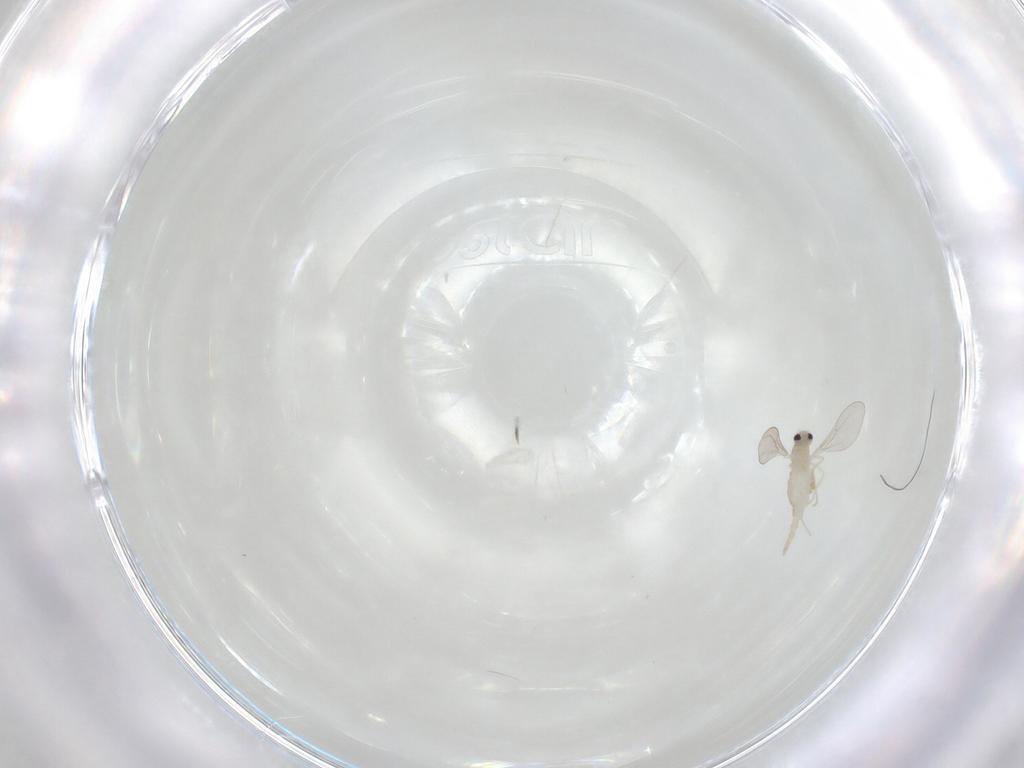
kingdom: Animalia
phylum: Arthropoda
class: Insecta
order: Diptera
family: Cecidomyiidae
